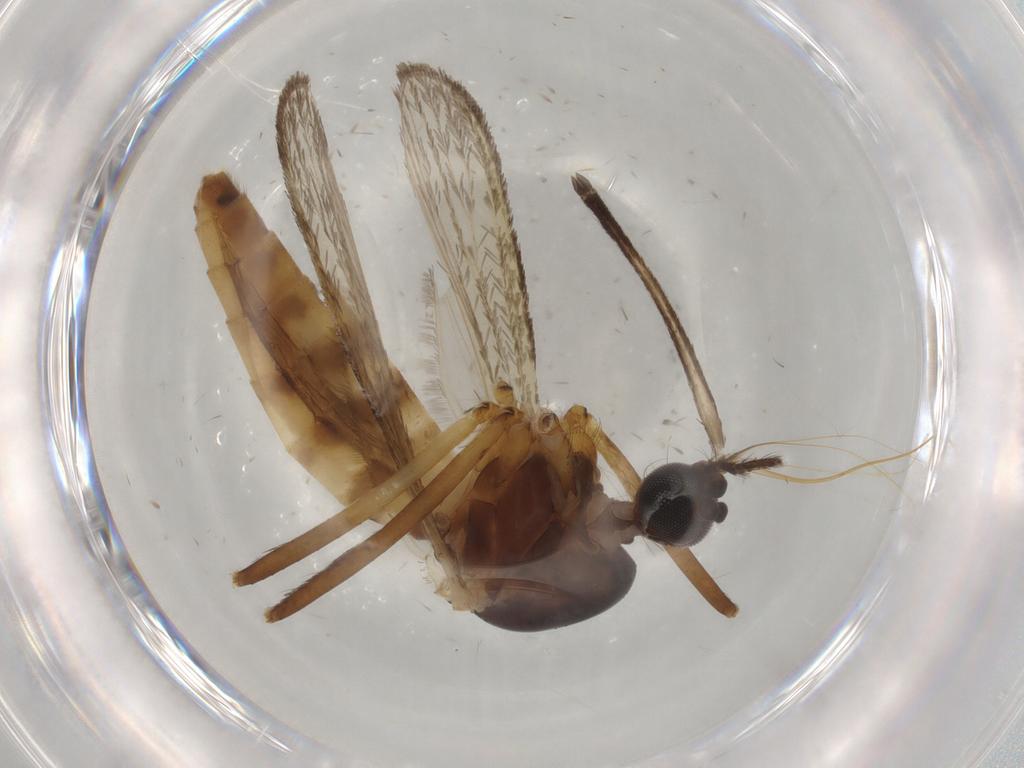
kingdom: Animalia
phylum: Arthropoda
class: Insecta
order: Diptera
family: Sciaridae
